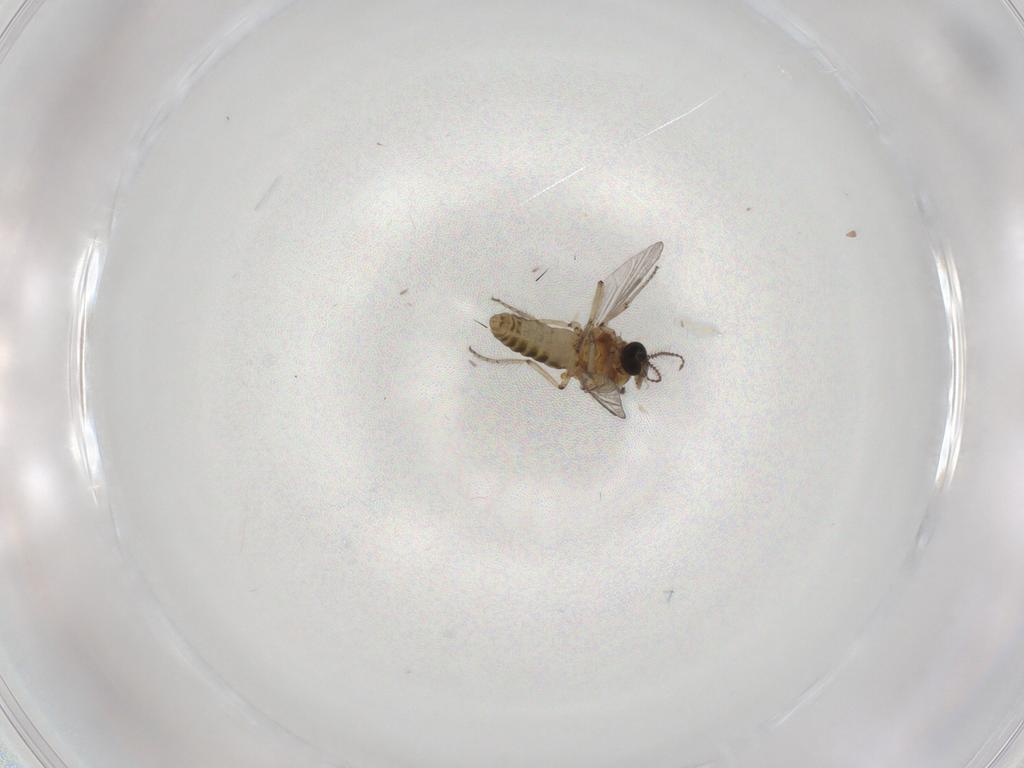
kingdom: Animalia
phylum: Arthropoda
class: Insecta
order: Diptera
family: Ceratopogonidae
